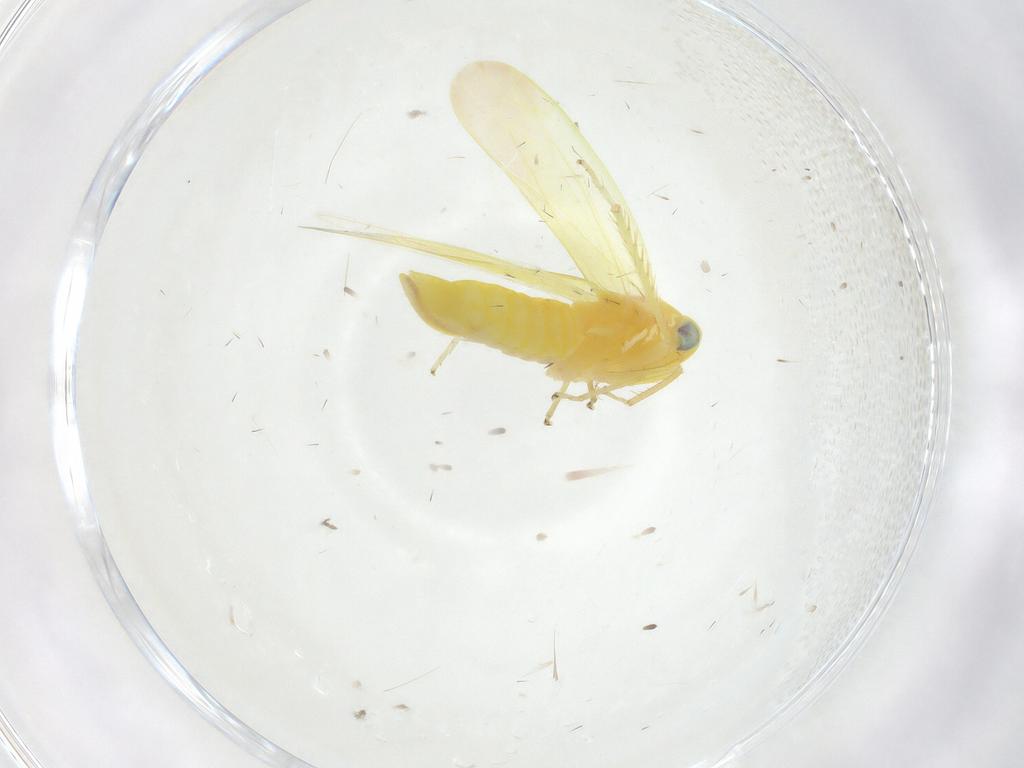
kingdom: Animalia
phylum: Arthropoda
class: Insecta
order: Hemiptera
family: Cicadellidae
